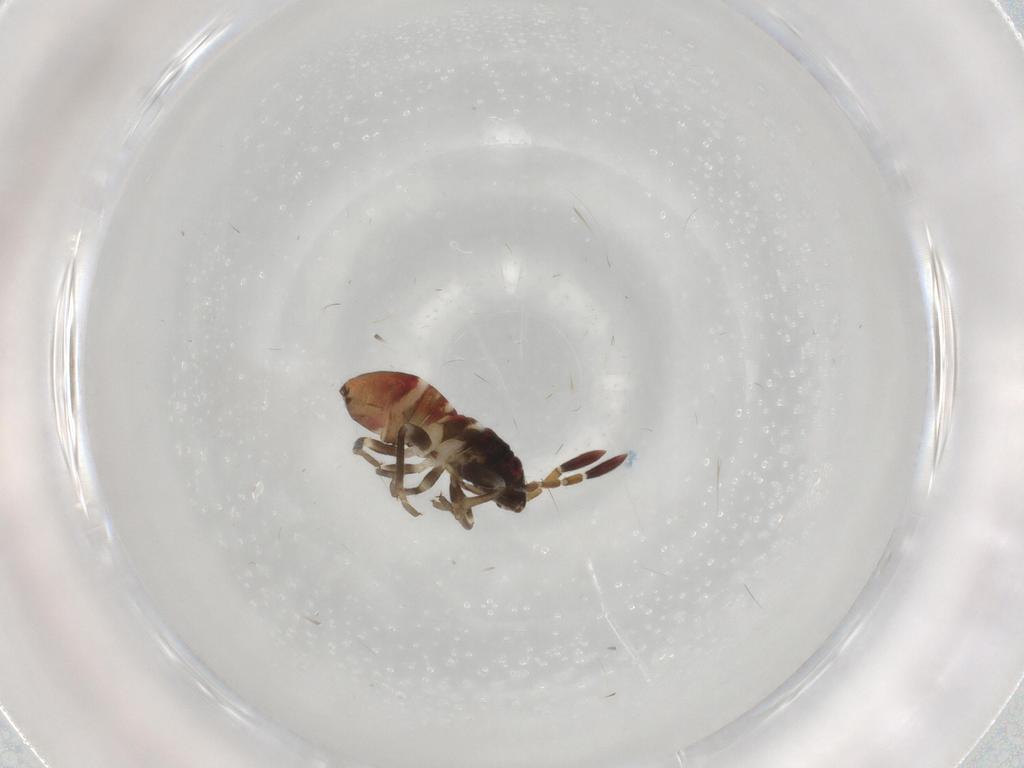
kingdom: Animalia
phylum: Arthropoda
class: Insecta
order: Hemiptera
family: Rhyparochromidae
